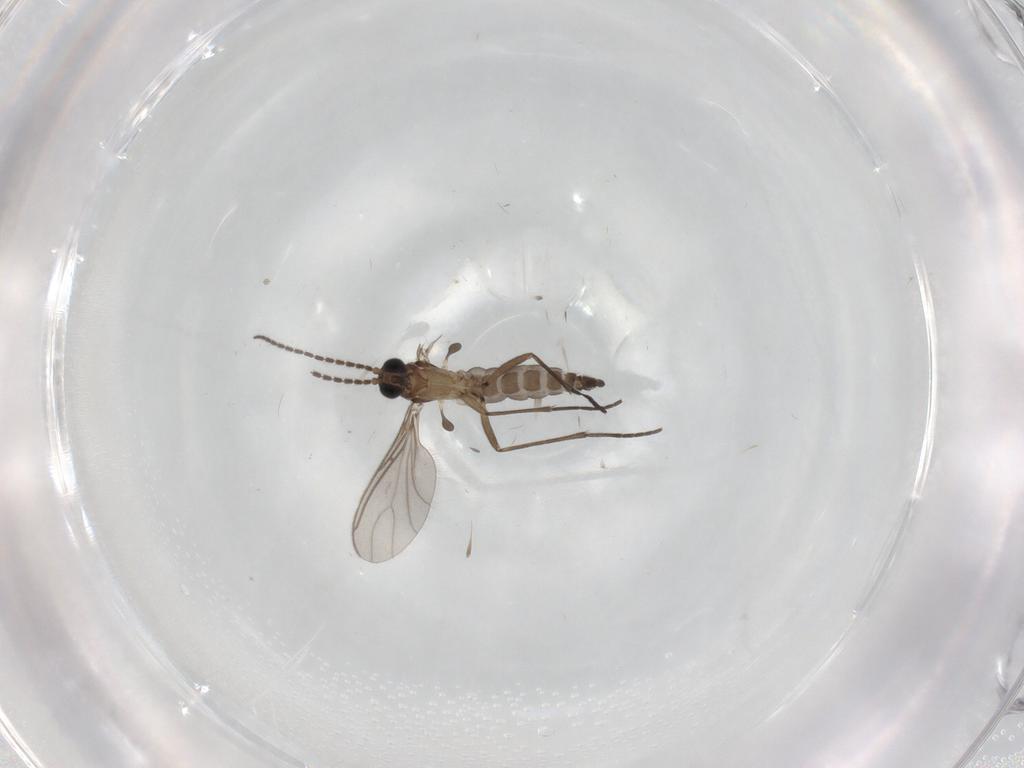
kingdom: Animalia
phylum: Arthropoda
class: Insecta
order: Diptera
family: Sciaridae
